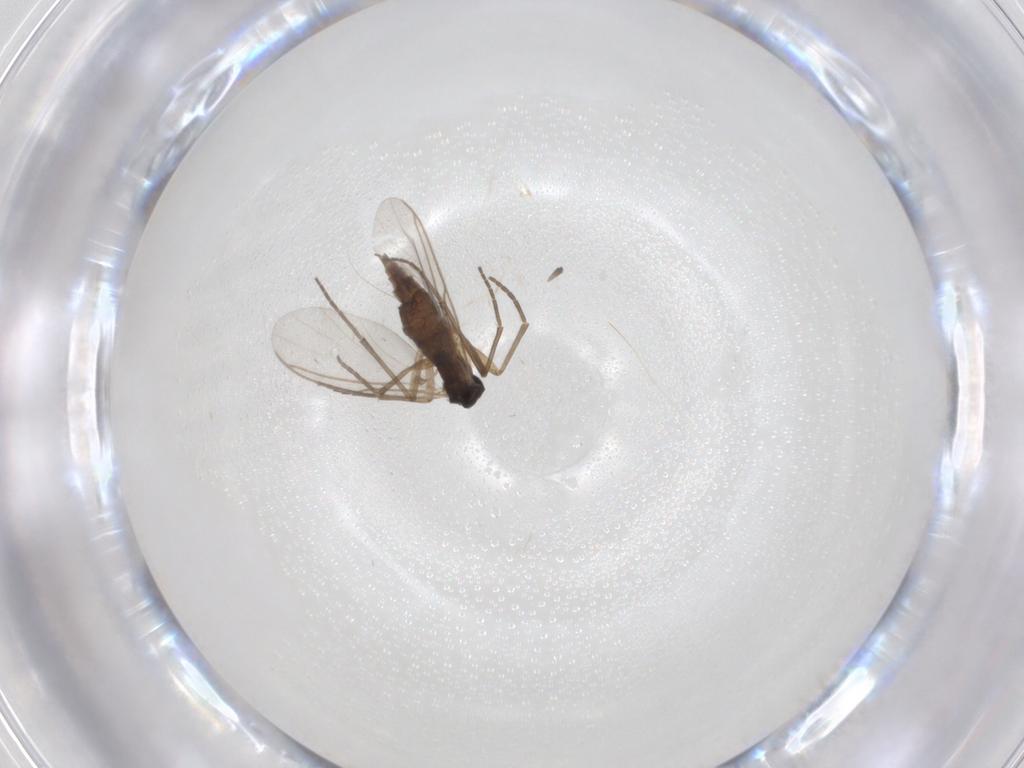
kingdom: Animalia
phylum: Arthropoda
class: Insecta
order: Diptera
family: Sciaridae
